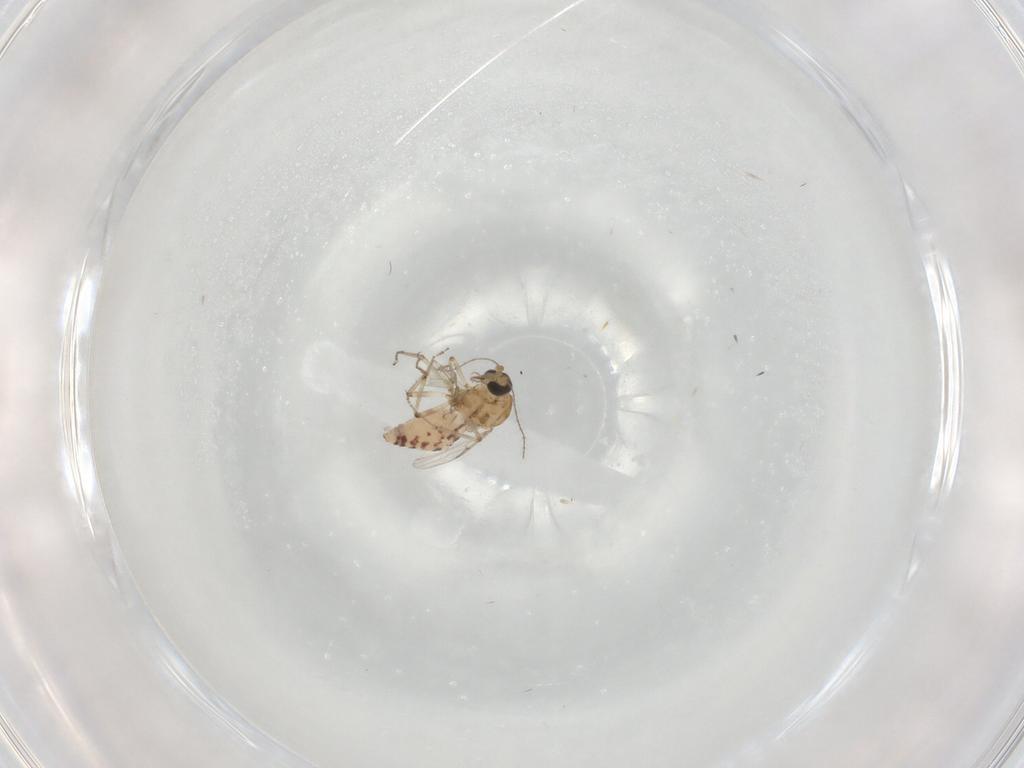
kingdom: Animalia
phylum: Arthropoda
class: Insecta
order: Diptera
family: Ceratopogonidae
